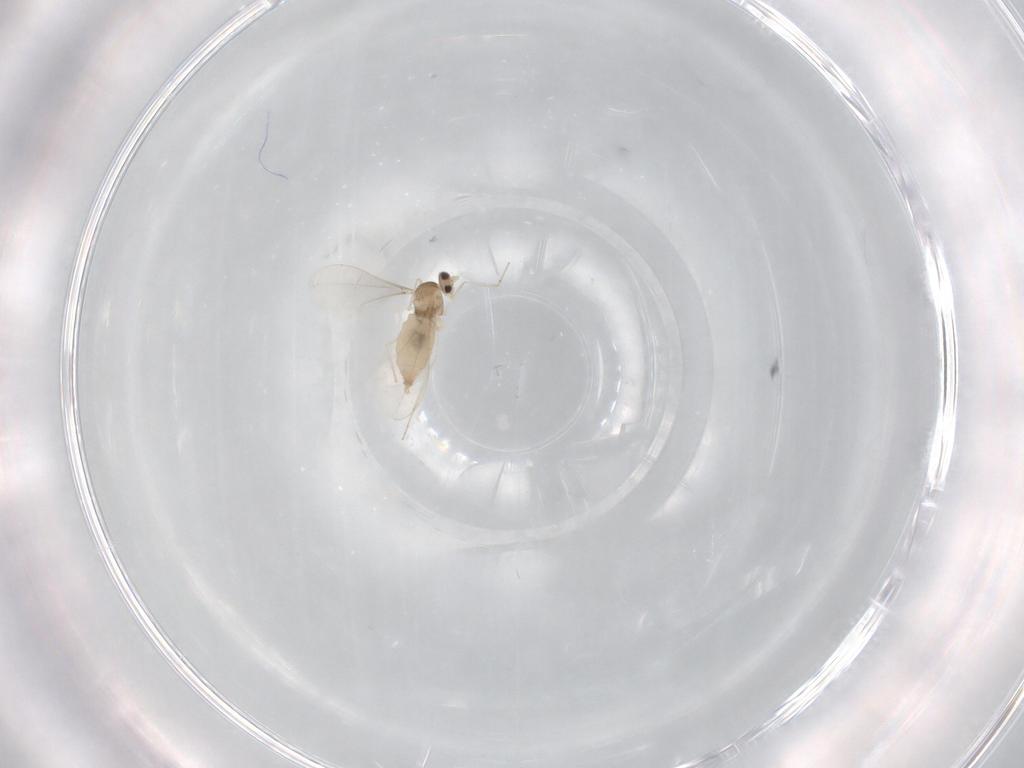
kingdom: Animalia
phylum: Arthropoda
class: Insecta
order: Diptera
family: Cecidomyiidae
